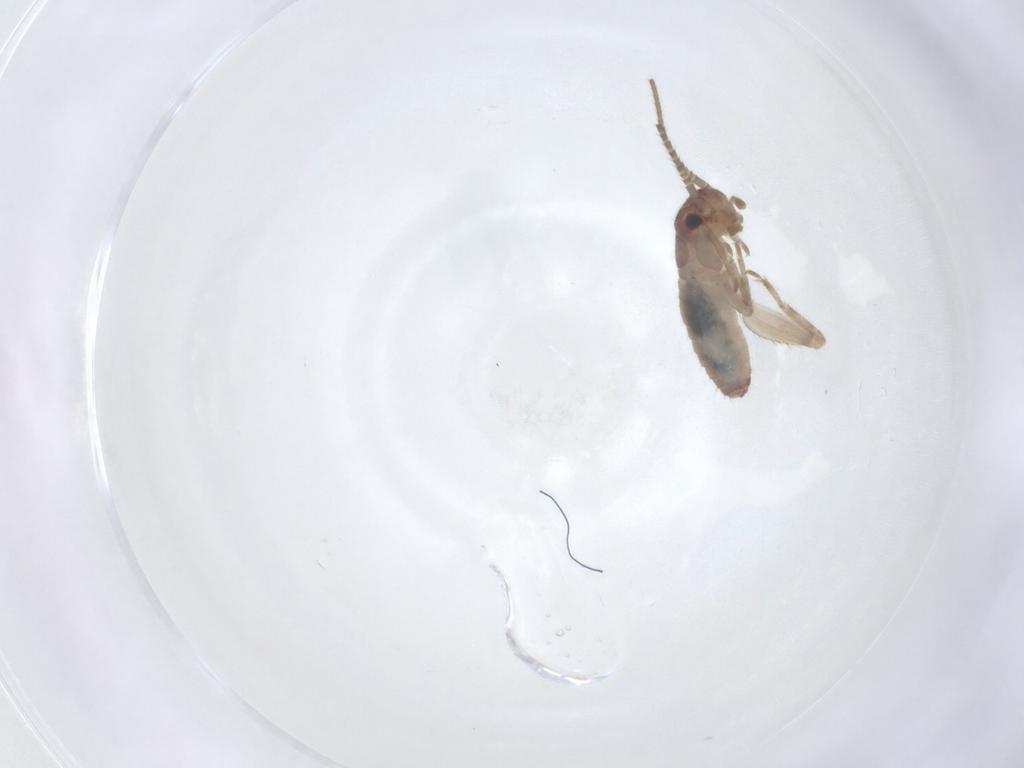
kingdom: Animalia
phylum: Arthropoda
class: Insecta
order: Orthoptera
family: Gryllidae
